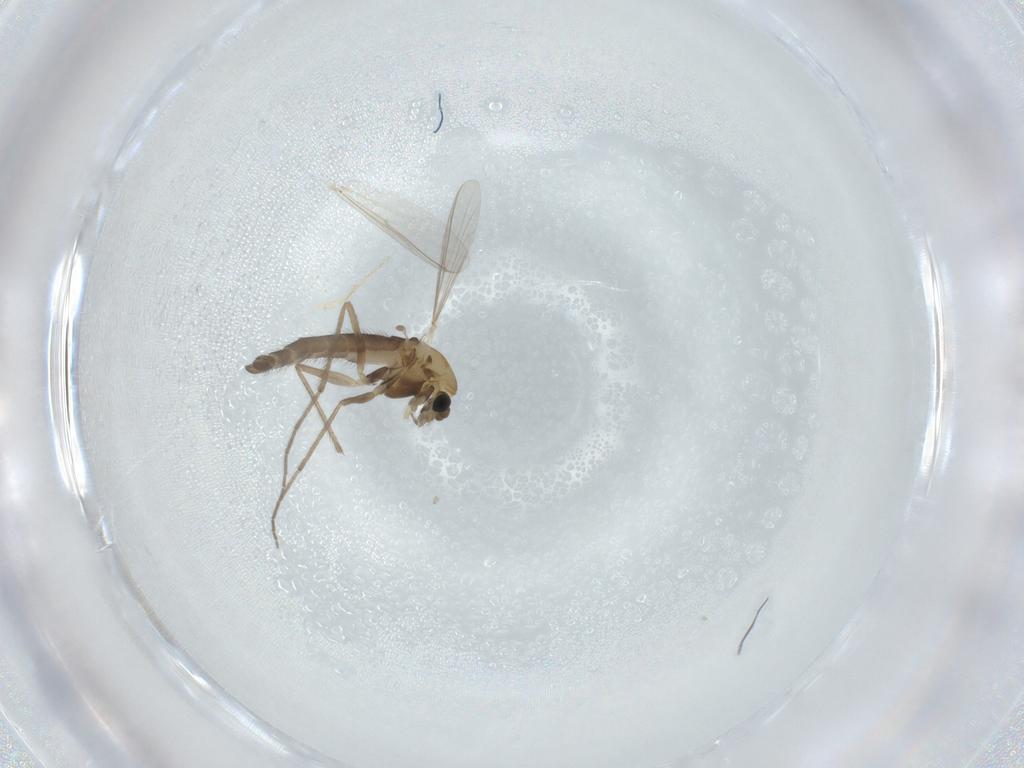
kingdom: Animalia
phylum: Arthropoda
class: Insecta
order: Diptera
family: Chironomidae
